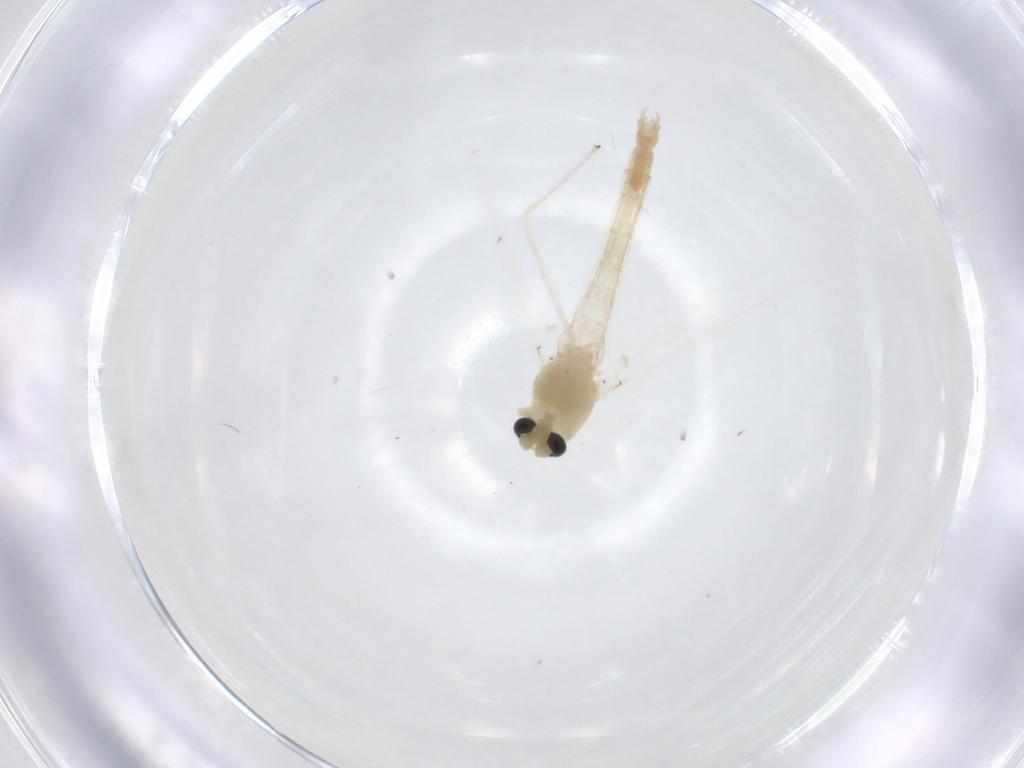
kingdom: Animalia
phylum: Arthropoda
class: Insecta
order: Diptera
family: Chironomidae
